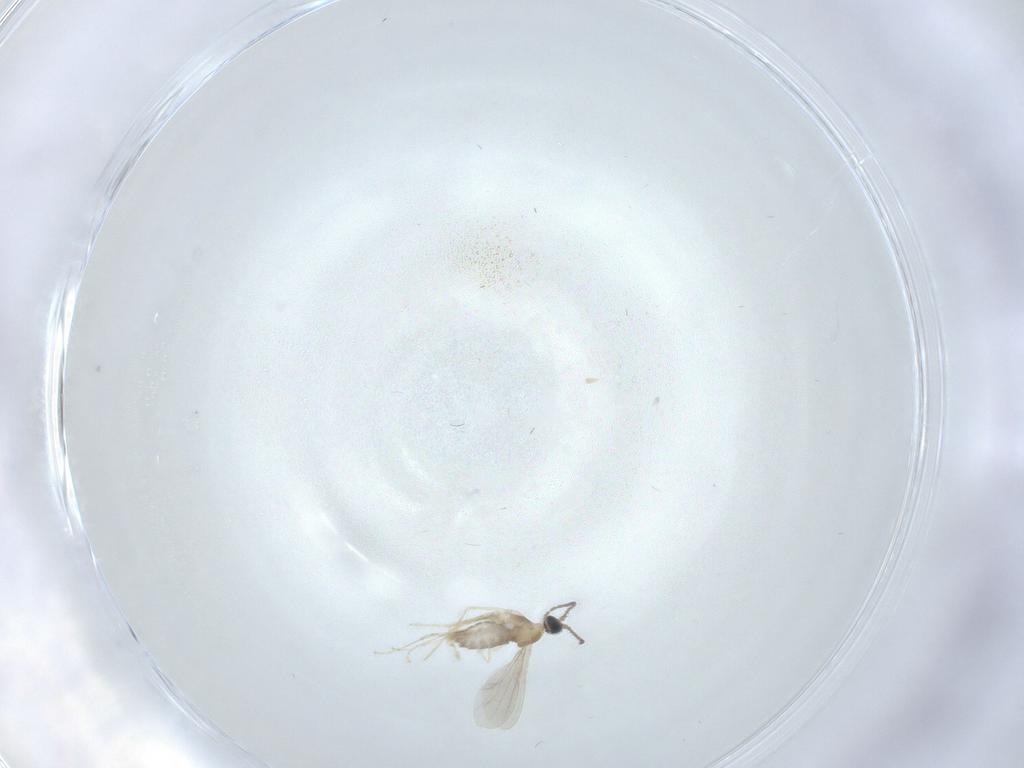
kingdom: Animalia
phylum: Arthropoda
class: Insecta
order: Diptera
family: Cecidomyiidae
